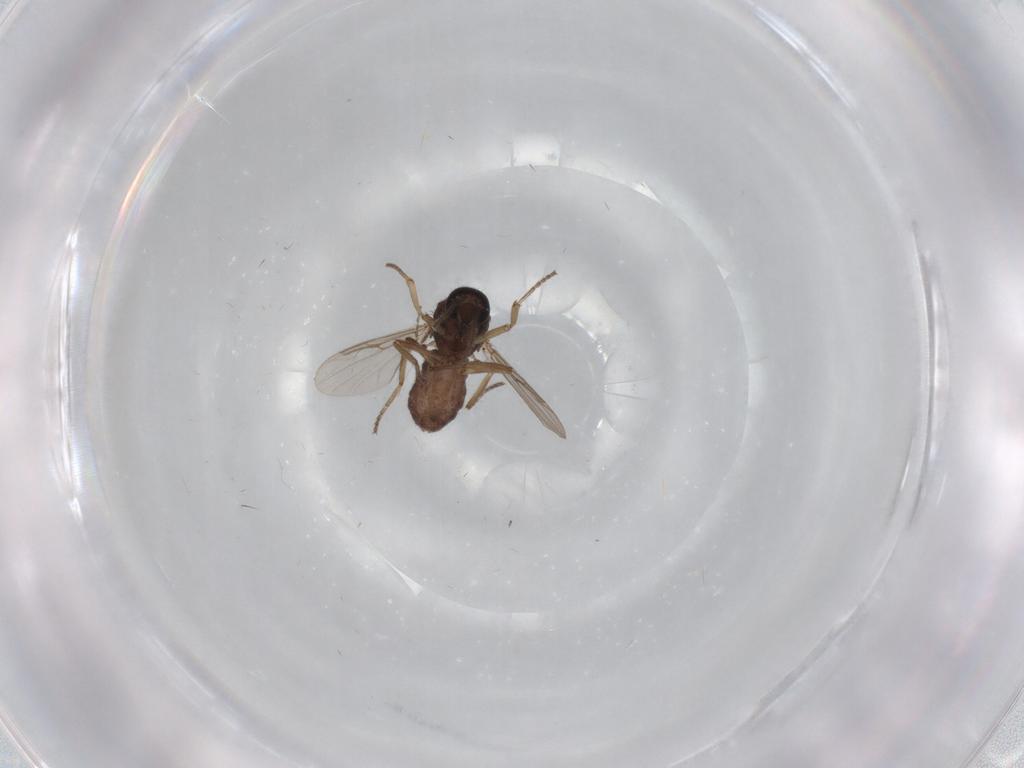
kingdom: Animalia
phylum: Arthropoda
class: Insecta
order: Diptera
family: Ceratopogonidae
